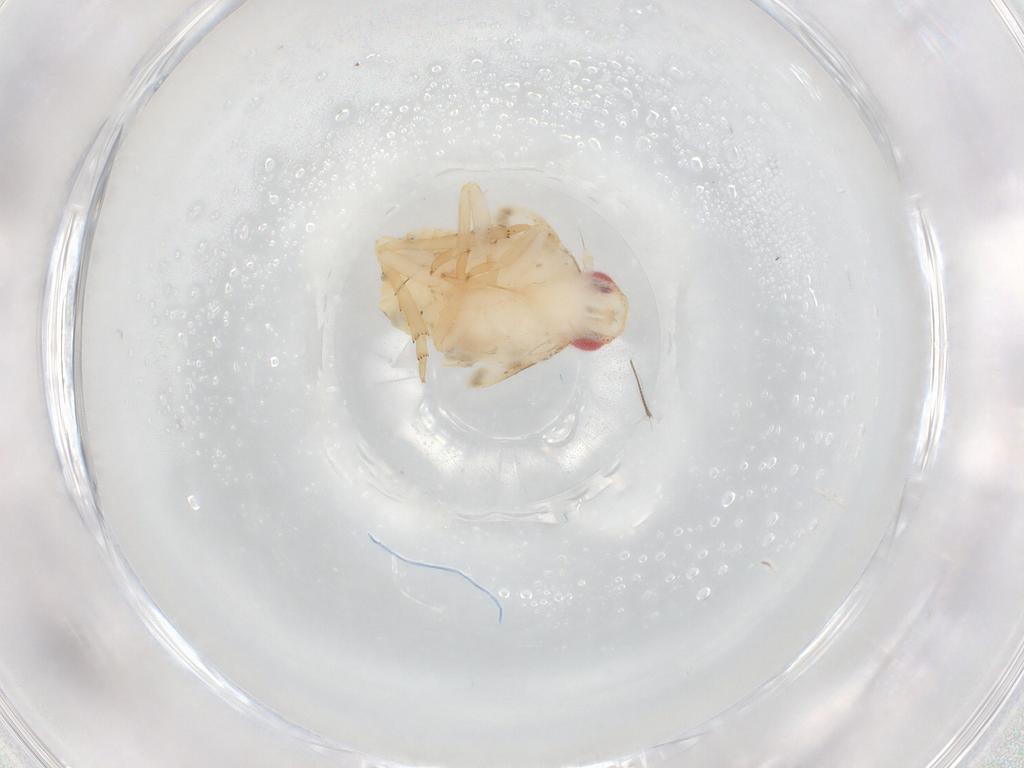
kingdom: Animalia
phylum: Arthropoda
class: Insecta
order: Hemiptera
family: Flatidae
